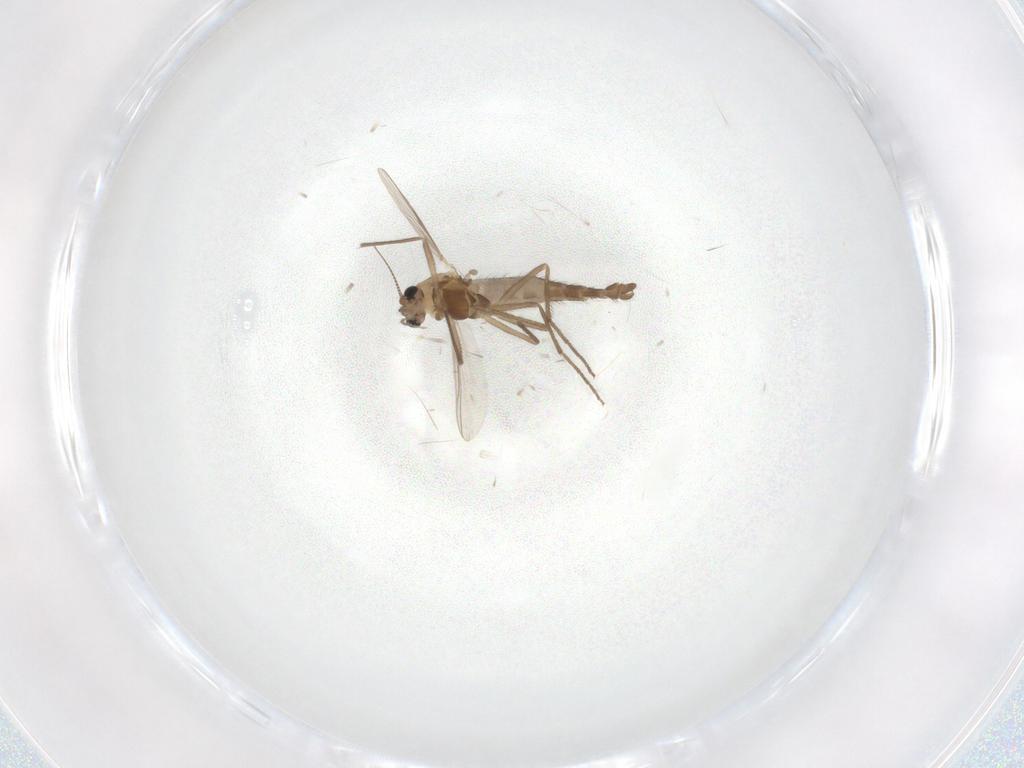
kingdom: Animalia
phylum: Arthropoda
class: Insecta
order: Diptera
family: Chironomidae
